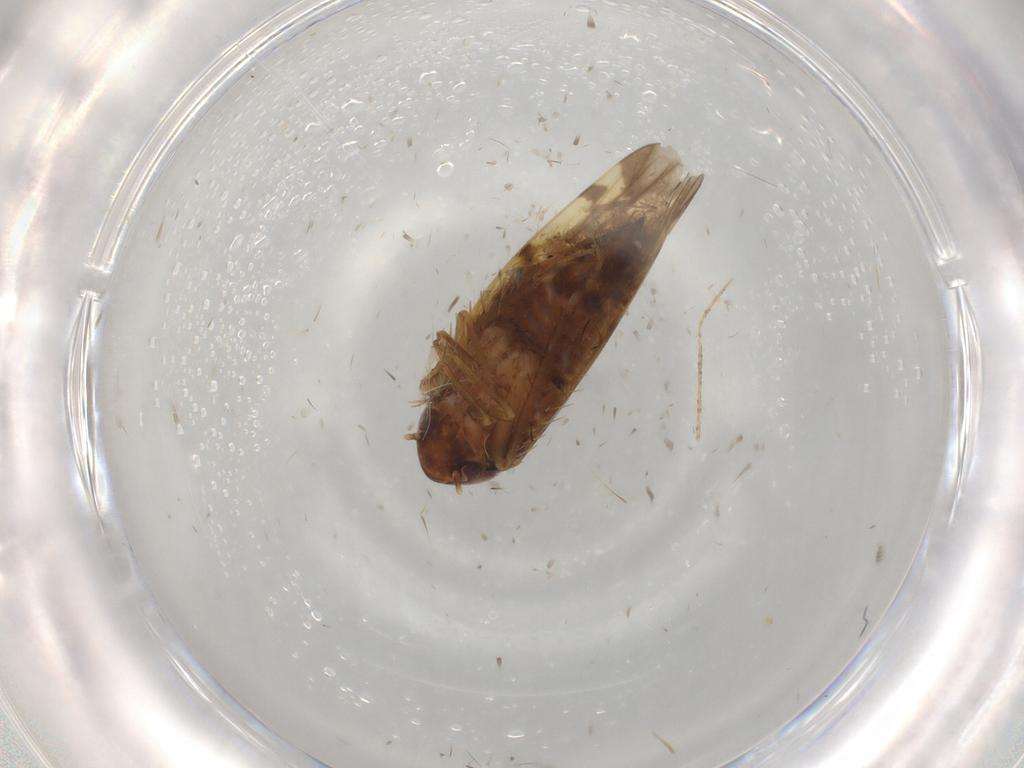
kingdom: Animalia
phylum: Arthropoda
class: Insecta
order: Hemiptera
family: Cicadellidae
